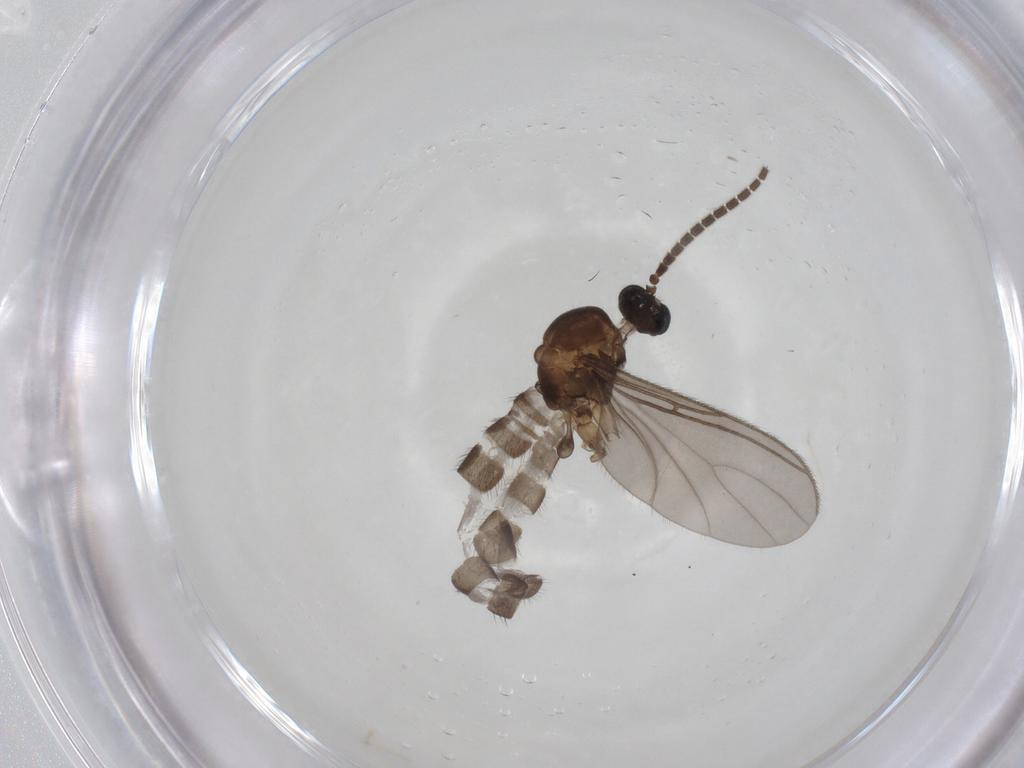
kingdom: Animalia
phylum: Arthropoda
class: Insecta
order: Diptera
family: Sciaridae
